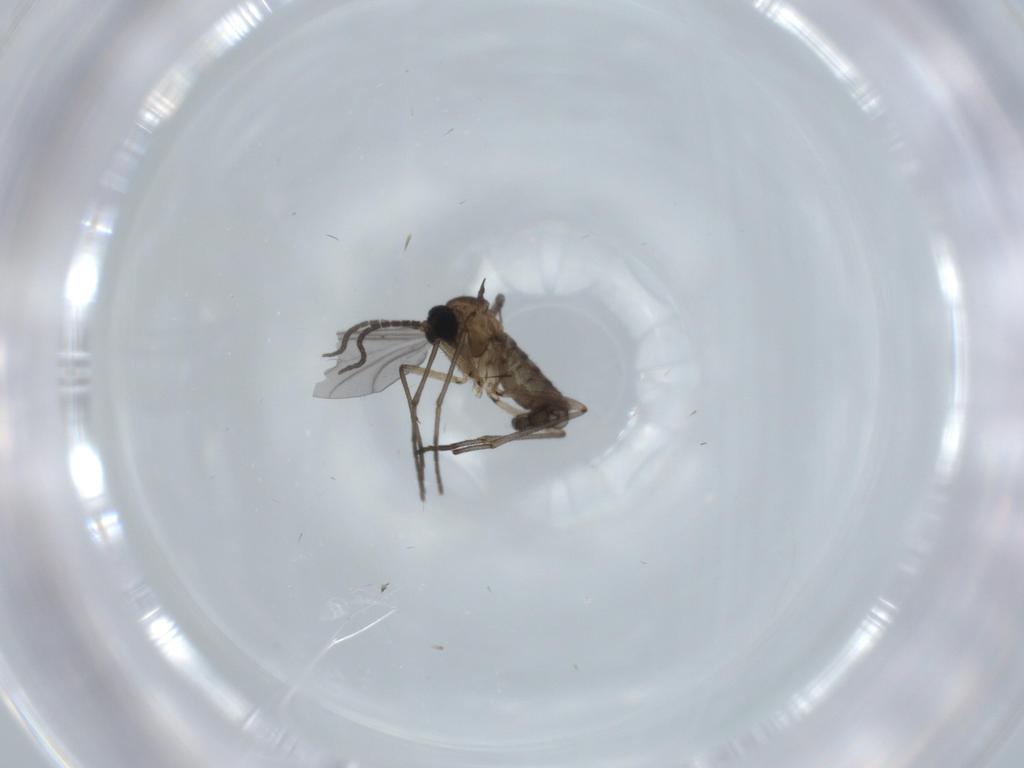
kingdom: Animalia
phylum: Arthropoda
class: Insecta
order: Diptera
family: Sciaridae
